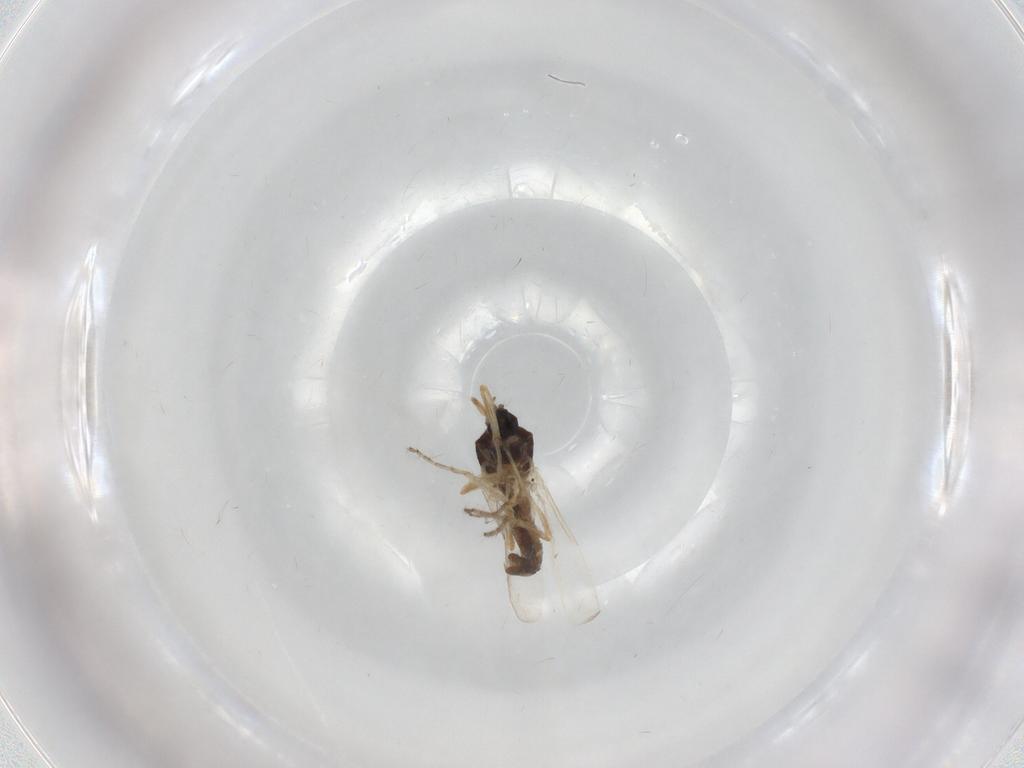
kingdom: Animalia
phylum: Arthropoda
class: Insecta
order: Diptera
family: Ceratopogonidae
